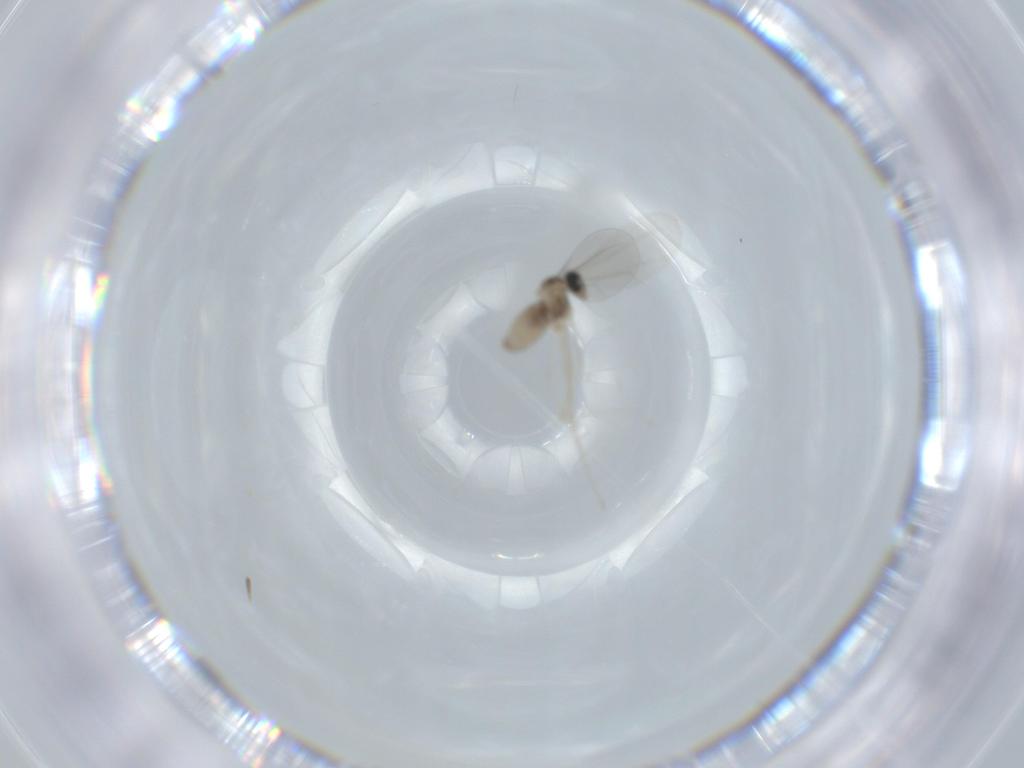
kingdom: Animalia
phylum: Arthropoda
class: Insecta
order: Diptera
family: Cecidomyiidae
